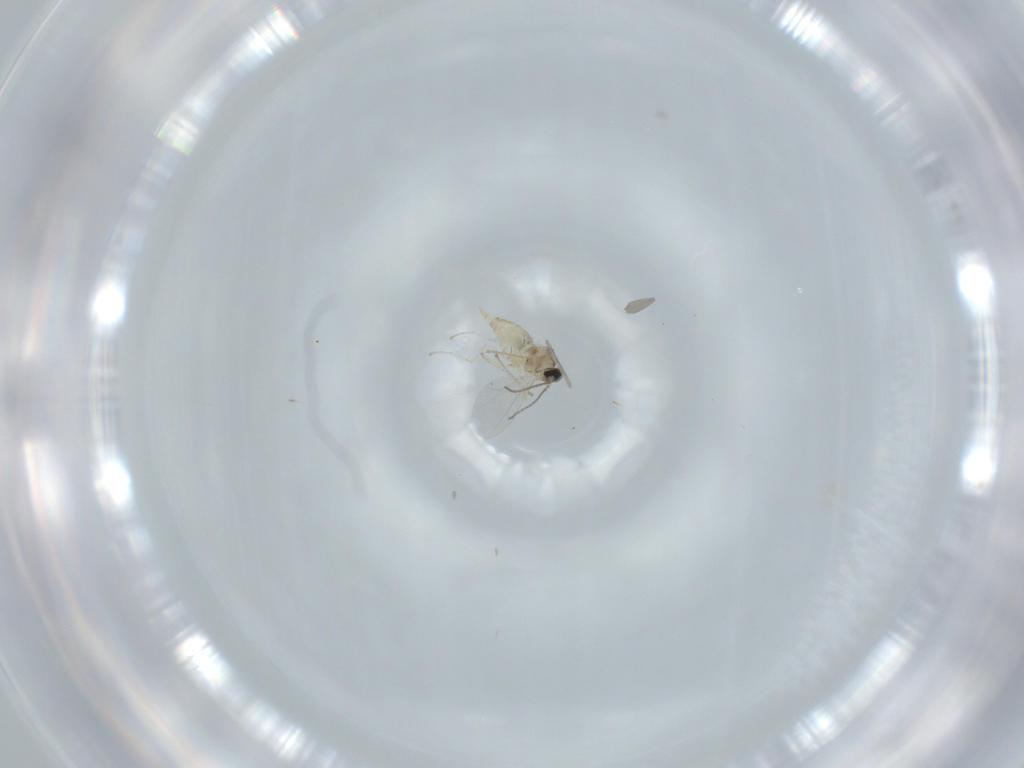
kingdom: Animalia
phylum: Arthropoda
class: Insecta
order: Diptera
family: Cecidomyiidae
